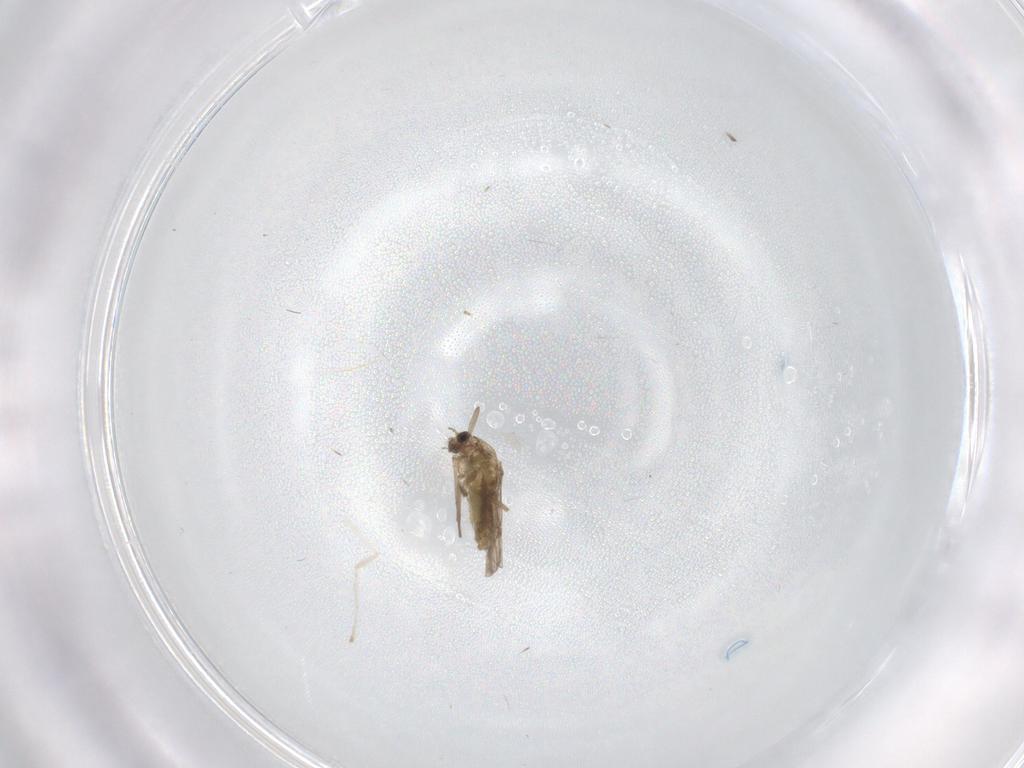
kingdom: Animalia
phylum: Arthropoda
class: Insecta
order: Diptera
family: Chironomidae
